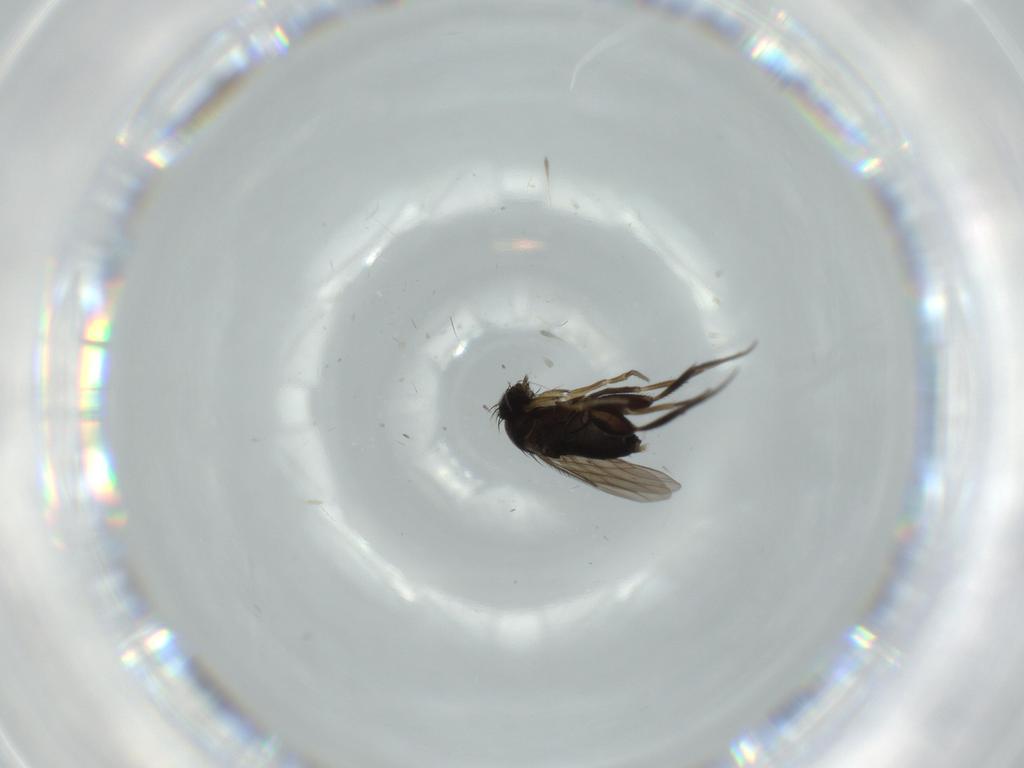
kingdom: Animalia
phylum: Arthropoda
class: Insecta
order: Diptera
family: Phoridae
